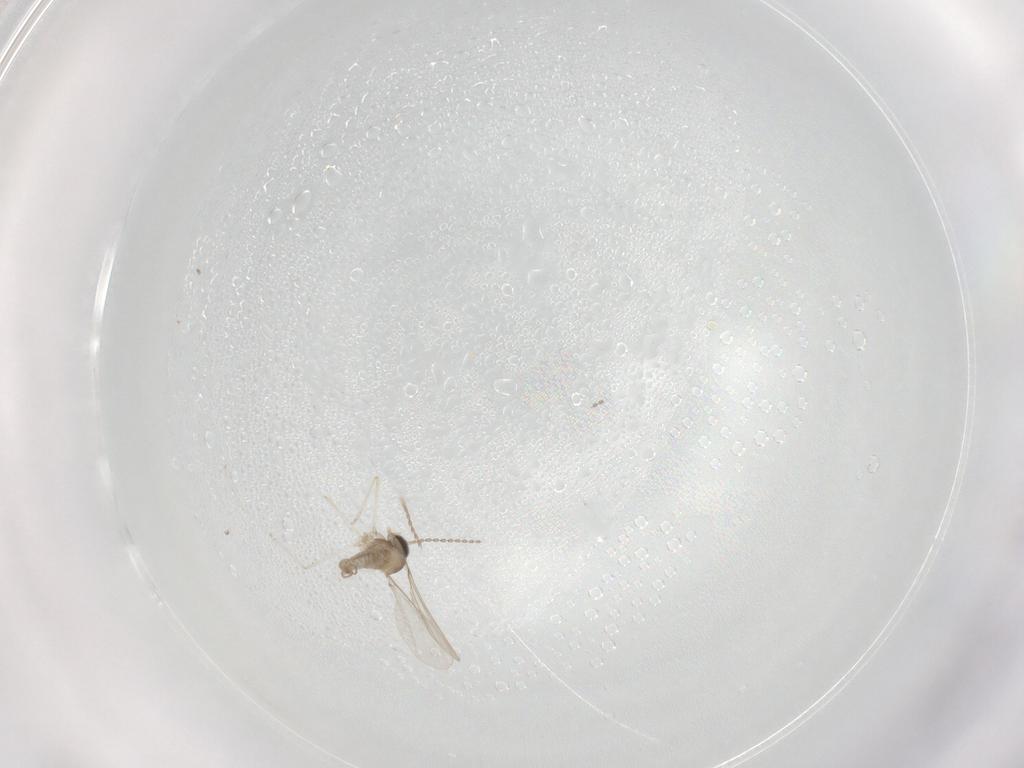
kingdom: Animalia
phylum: Arthropoda
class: Insecta
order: Diptera
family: Cecidomyiidae
